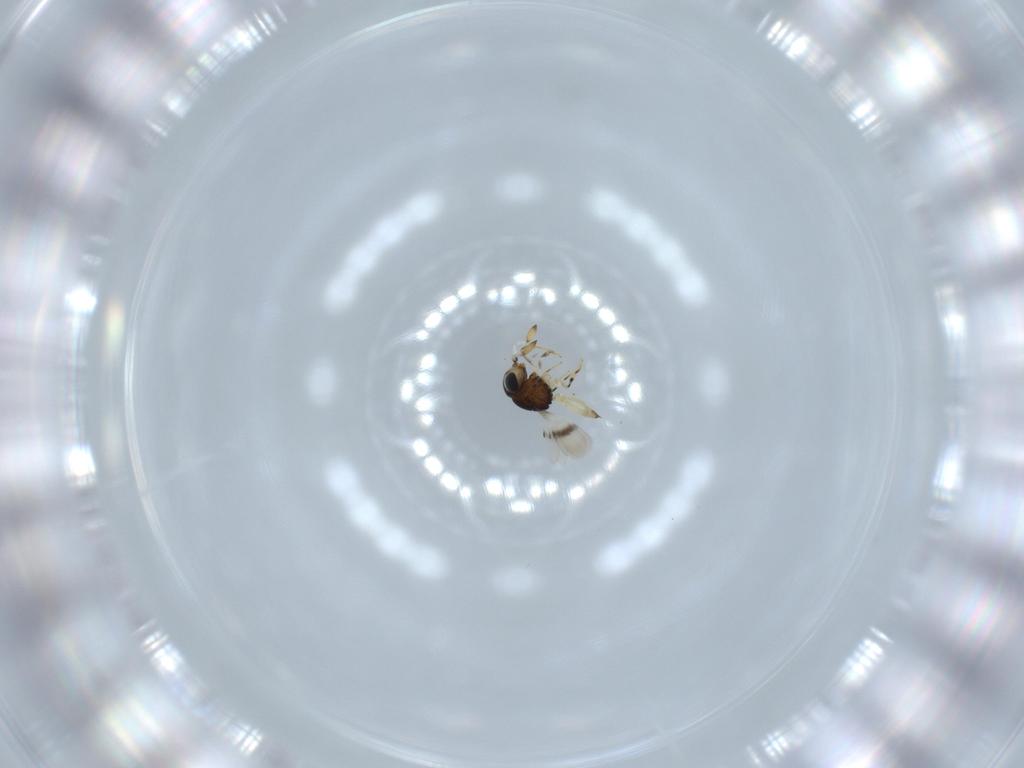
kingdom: Animalia
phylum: Arthropoda
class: Insecta
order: Hymenoptera
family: Scelionidae
